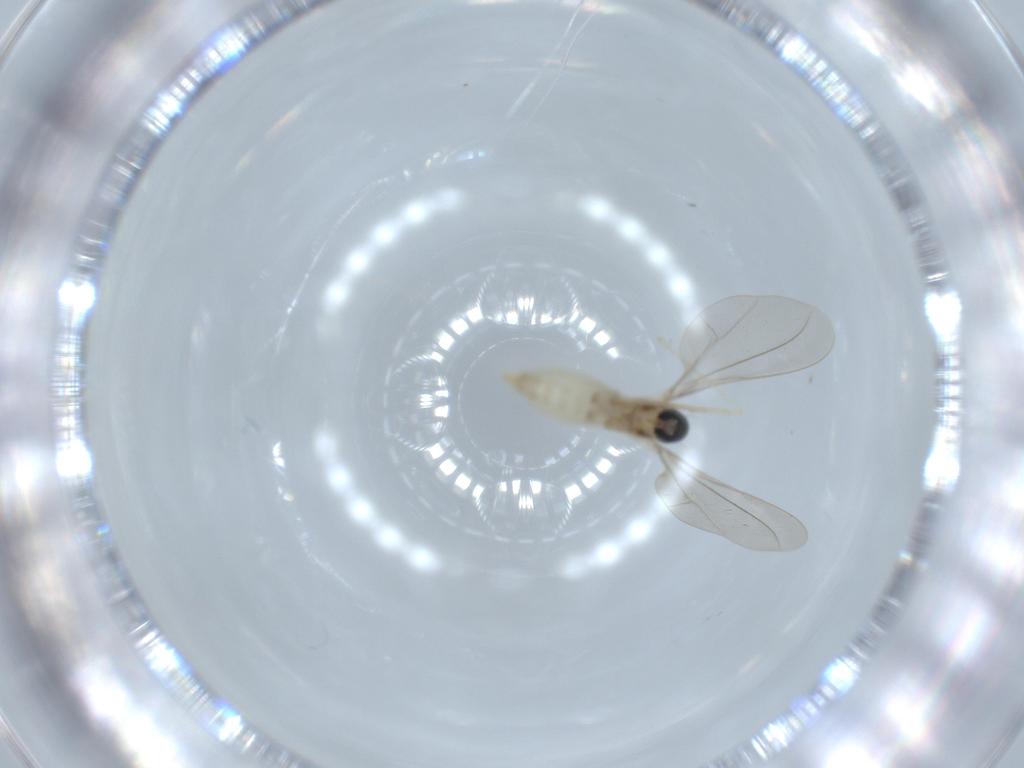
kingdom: Animalia
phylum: Arthropoda
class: Insecta
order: Diptera
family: Cecidomyiidae
